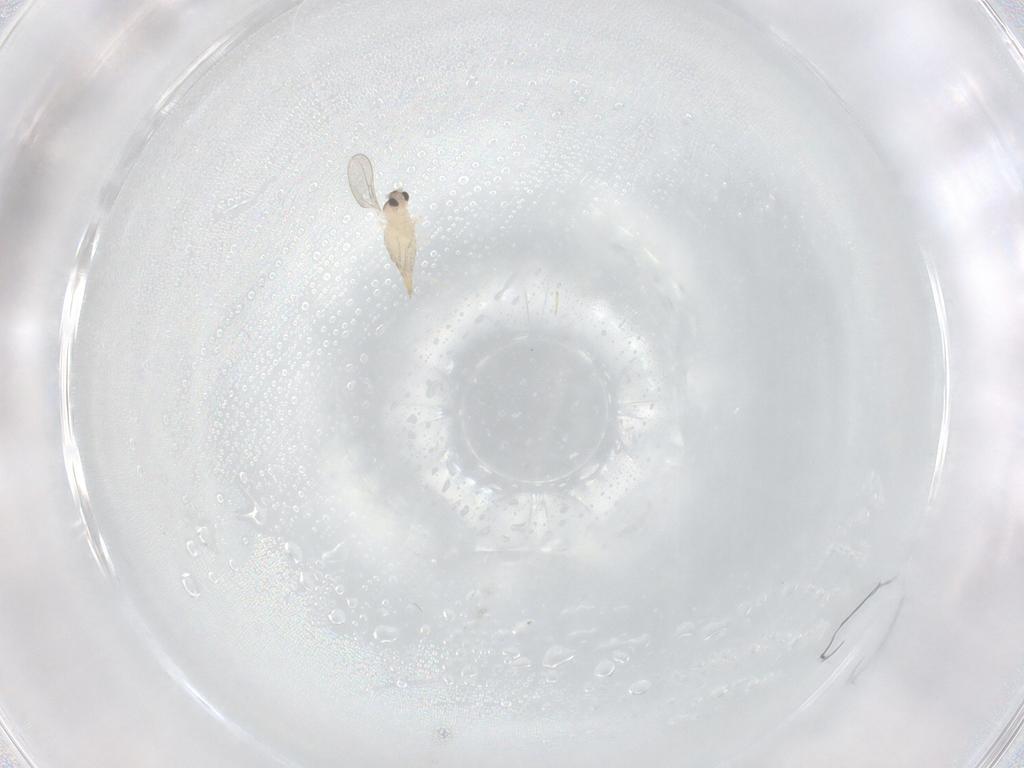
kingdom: Animalia
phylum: Arthropoda
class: Insecta
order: Diptera
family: Cecidomyiidae
